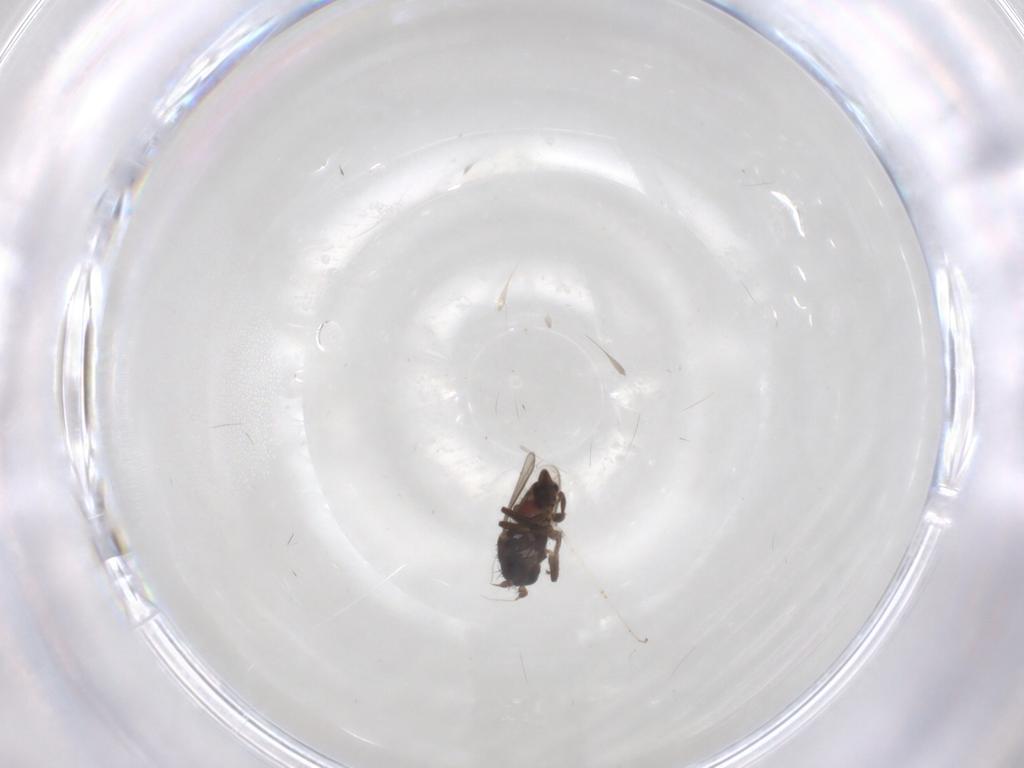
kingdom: Animalia
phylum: Arthropoda
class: Insecta
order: Diptera
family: Sphaeroceridae
